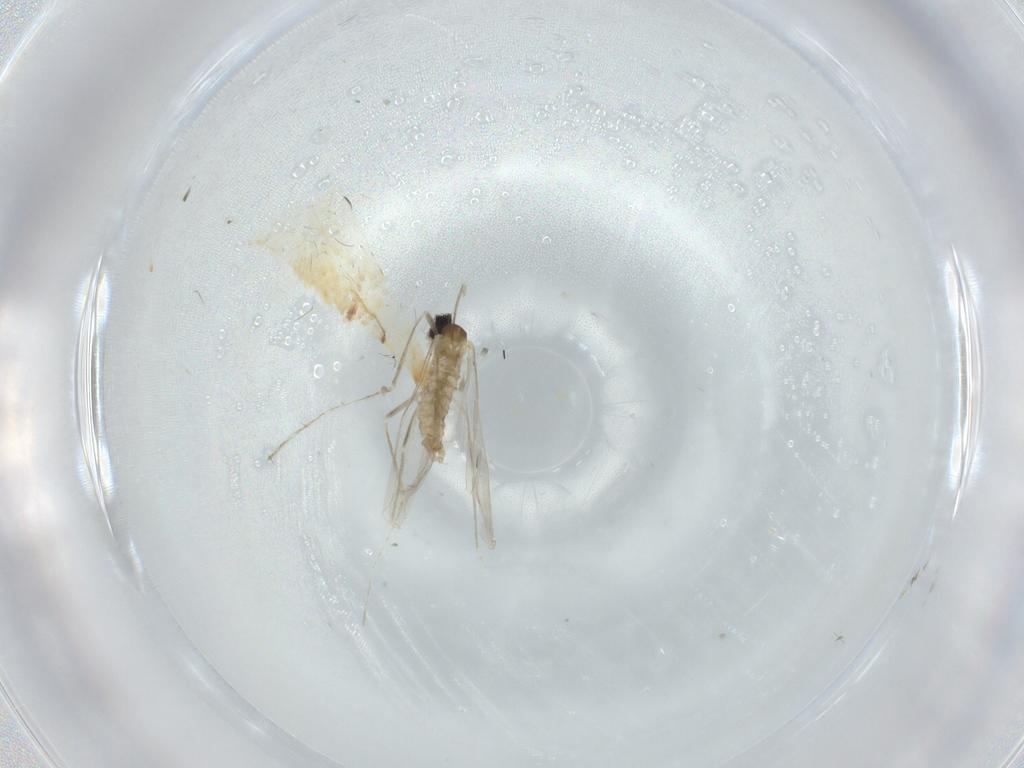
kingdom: Animalia
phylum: Arthropoda
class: Insecta
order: Diptera
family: Cecidomyiidae
